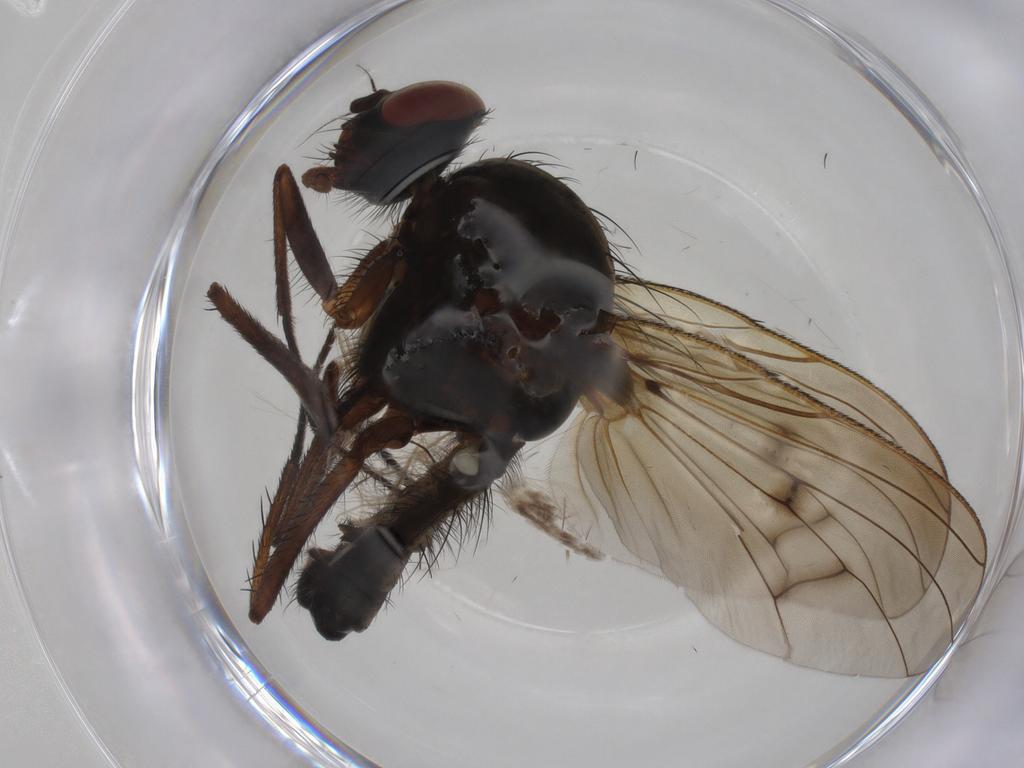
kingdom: Animalia
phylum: Arthropoda
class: Insecta
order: Diptera
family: Anthomyiidae
